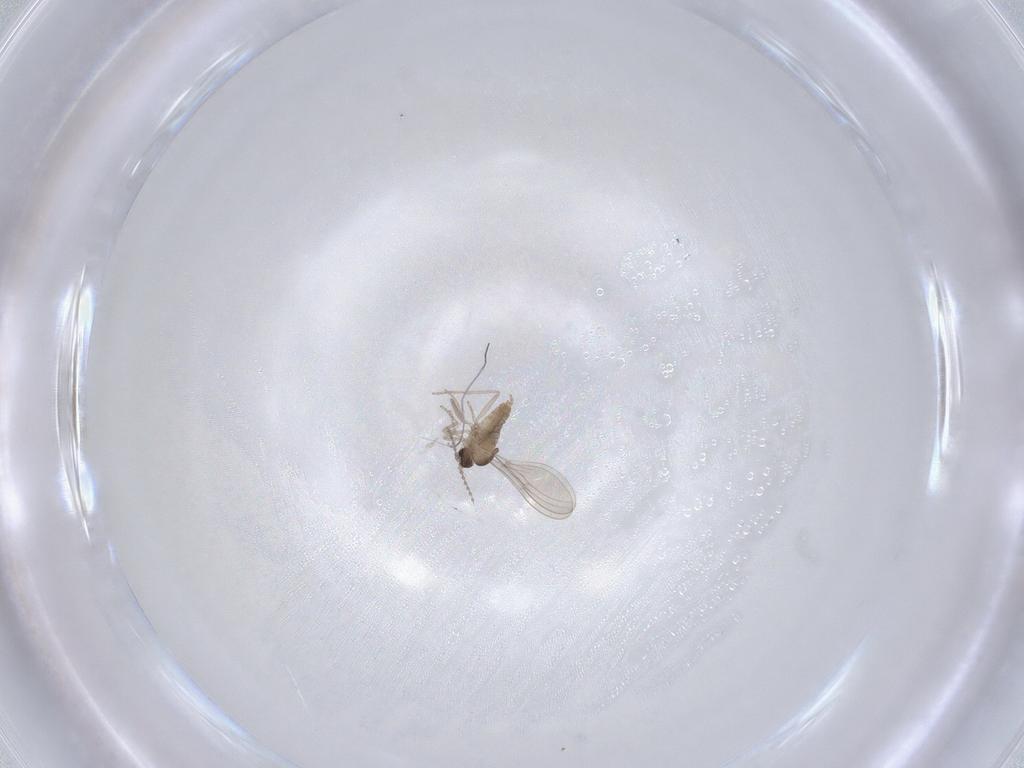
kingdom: Animalia
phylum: Arthropoda
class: Insecta
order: Diptera
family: Cecidomyiidae
